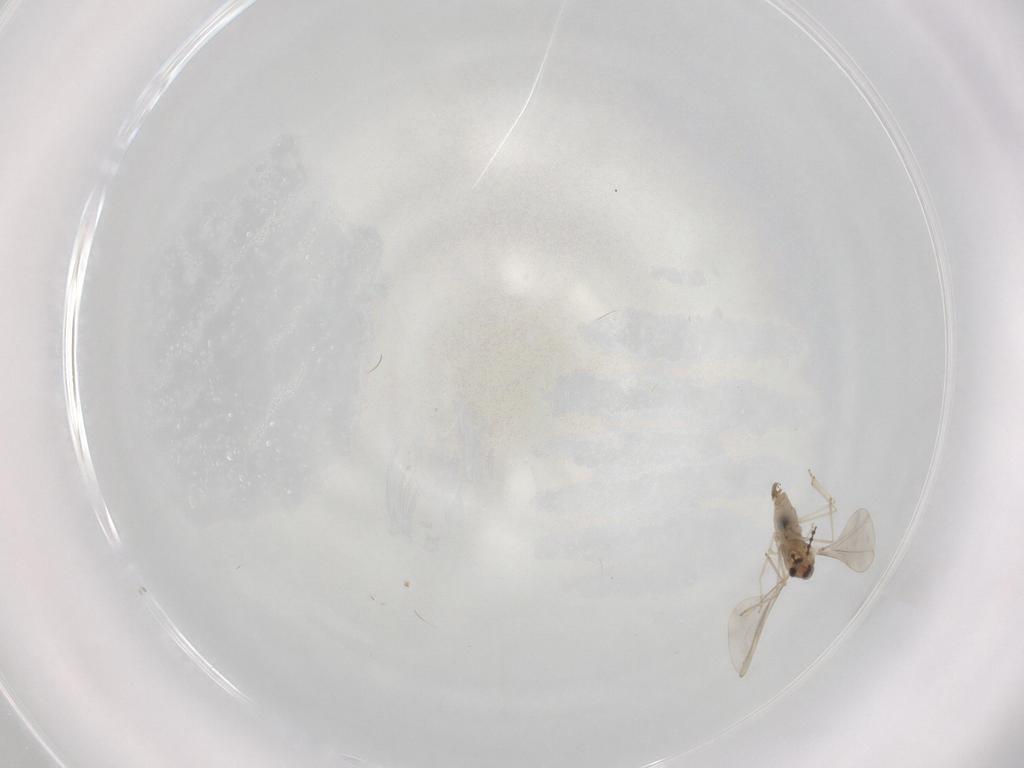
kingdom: Animalia
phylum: Arthropoda
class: Insecta
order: Diptera
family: Cecidomyiidae
